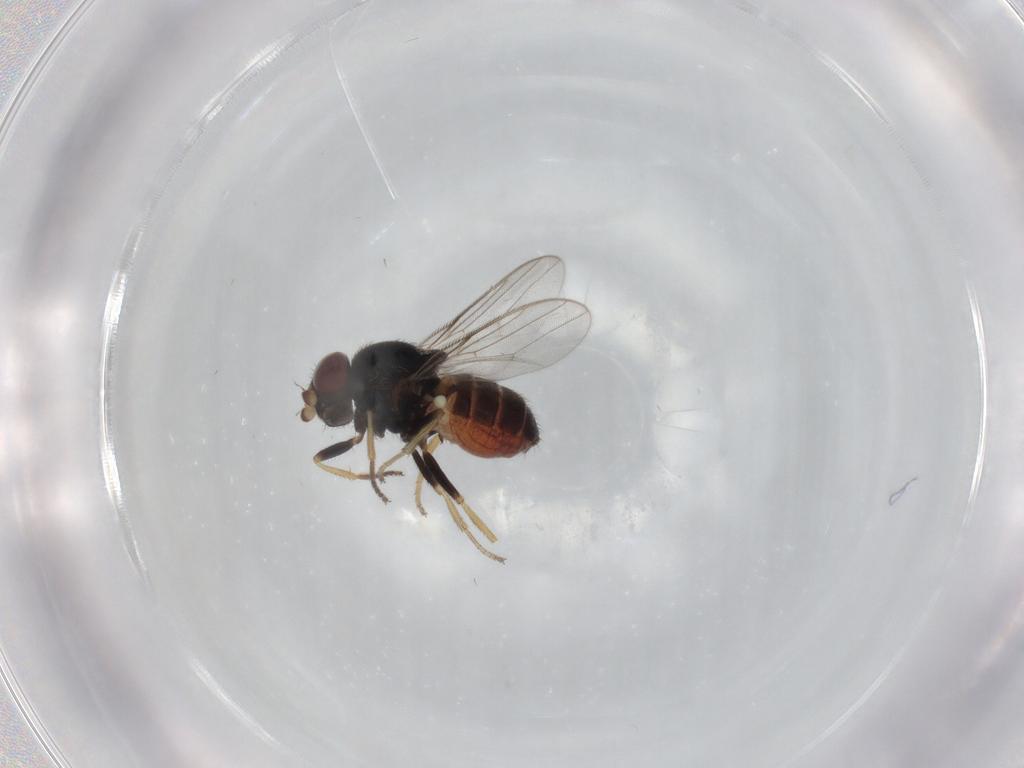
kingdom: Animalia
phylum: Arthropoda
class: Insecta
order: Diptera
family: Chloropidae
